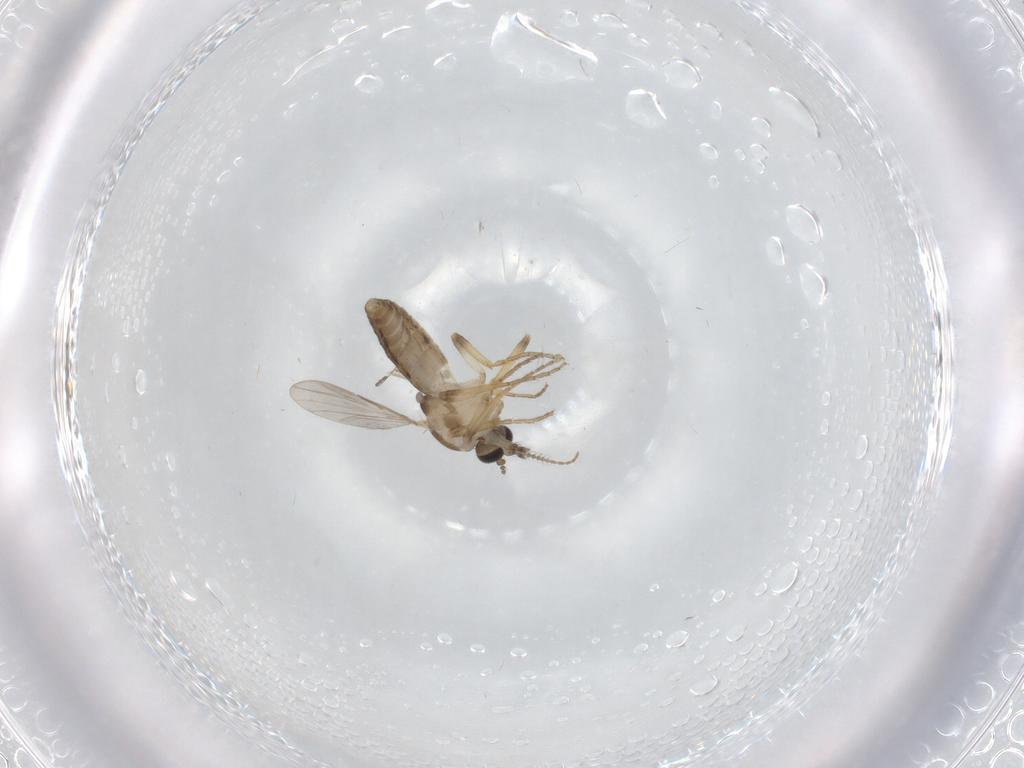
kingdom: Animalia
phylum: Arthropoda
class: Insecta
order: Diptera
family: Ceratopogonidae
